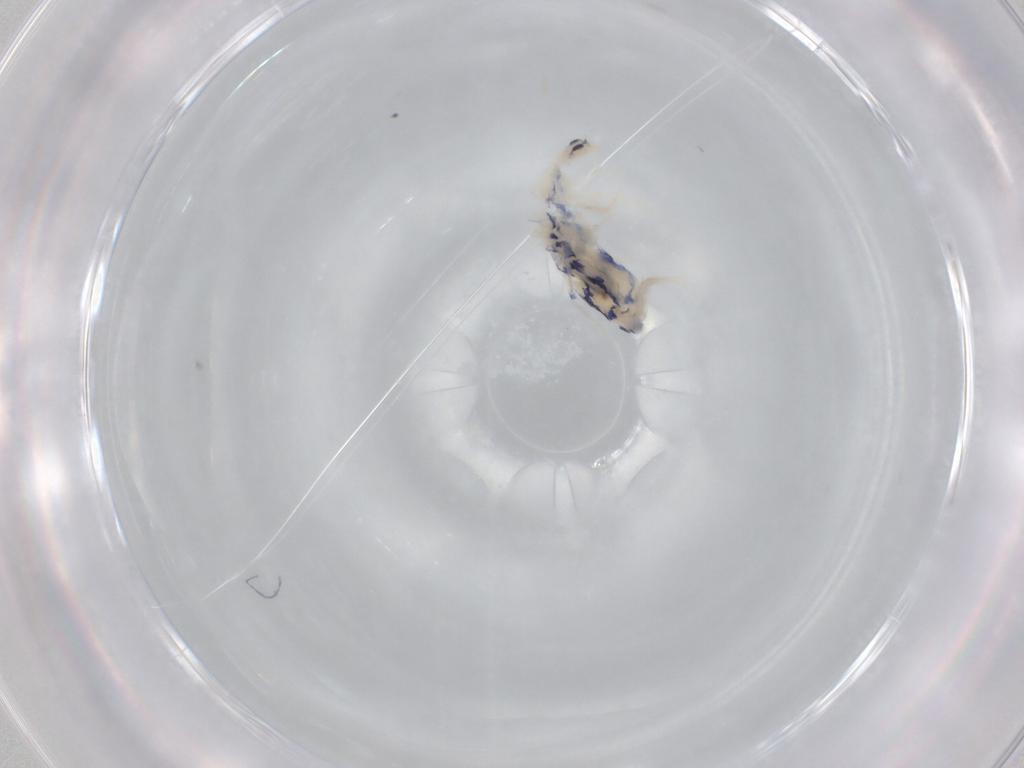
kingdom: Animalia
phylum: Arthropoda
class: Collembola
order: Entomobryomorpha
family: Entomobryidae
